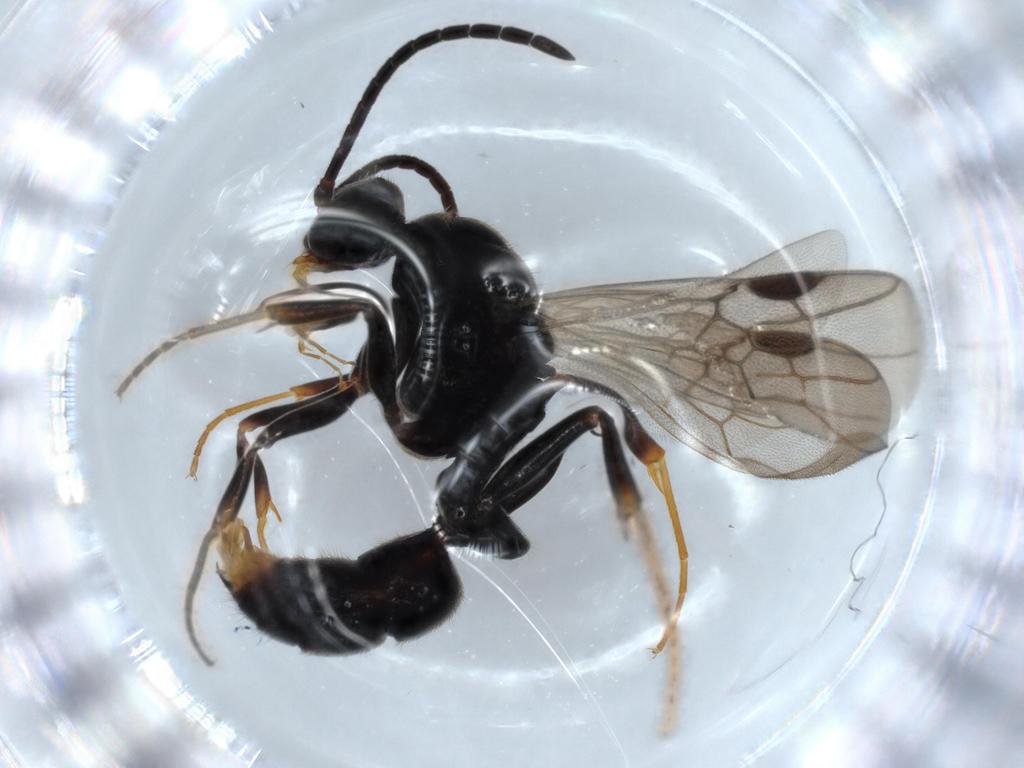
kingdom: Animalia
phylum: Arthropoda
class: Insecta
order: Hymenoptera
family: Formicidae
